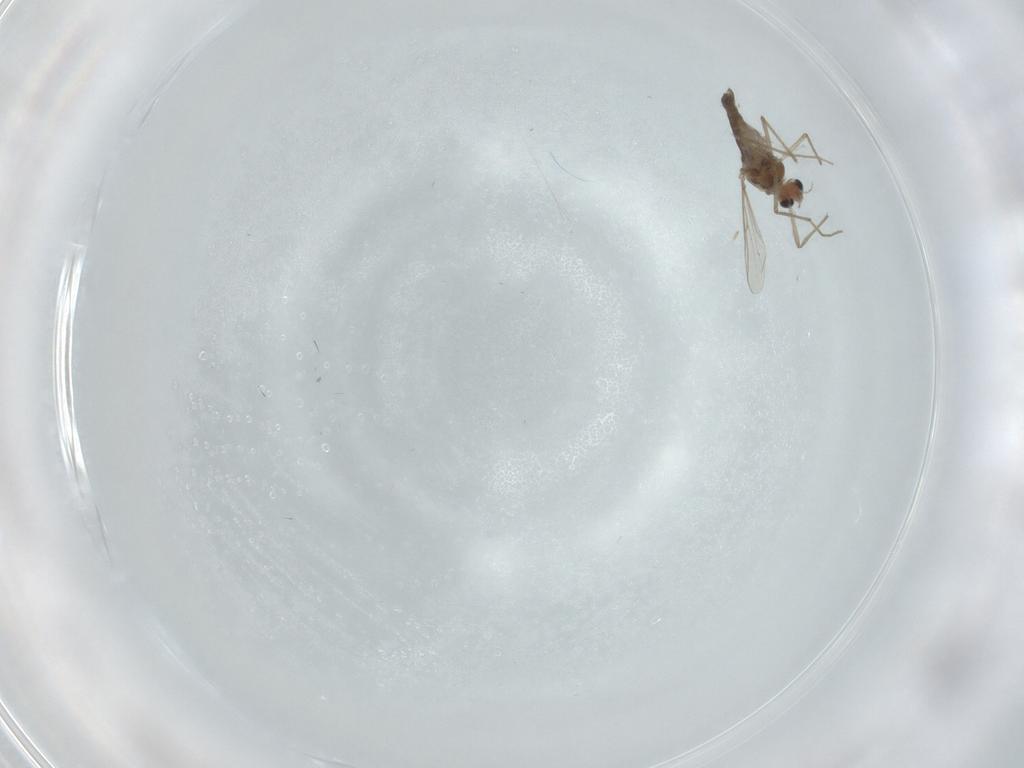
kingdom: Animalia
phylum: Arthropoda
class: Insecta
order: Diptera
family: Chironomidae
